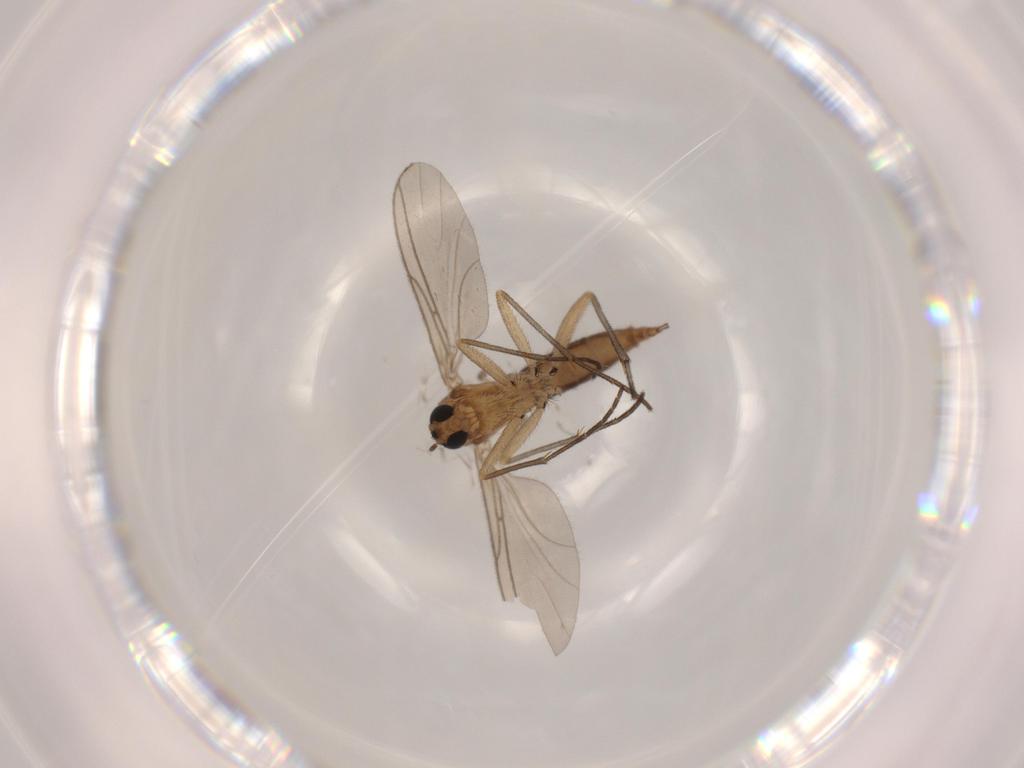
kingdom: Animalia
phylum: Arthropoda
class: Insecta
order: Diptera
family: Sciaridae
